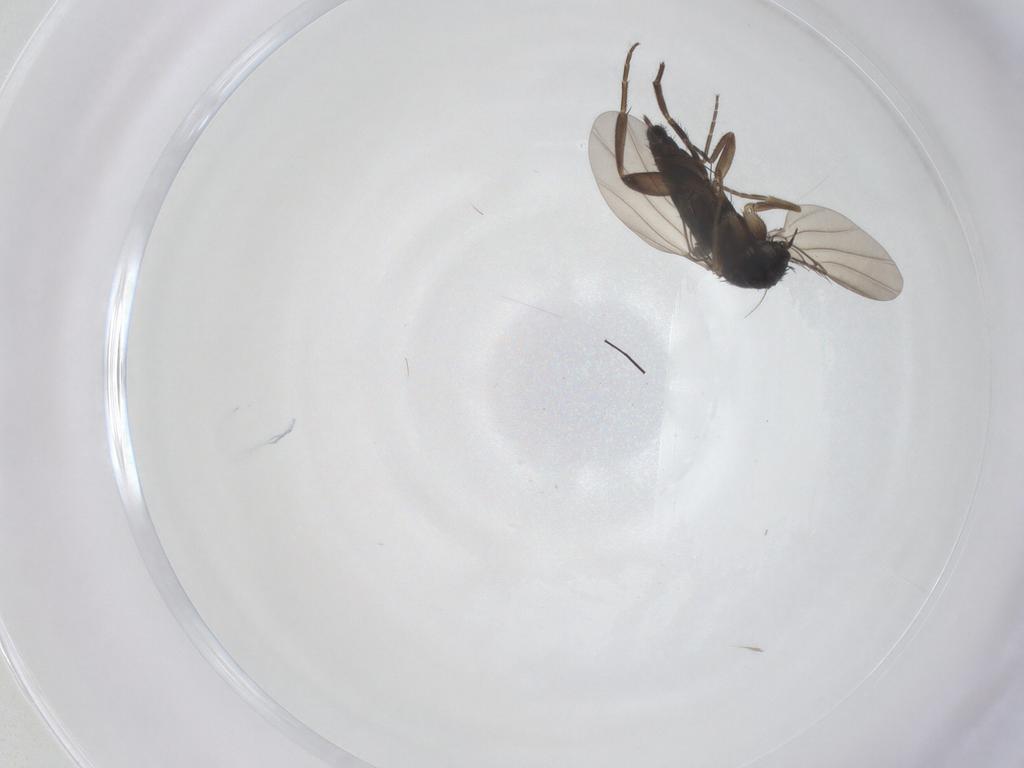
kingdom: Animalia
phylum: Arthropoda
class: Insecta
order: Diptera
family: Phoridae
